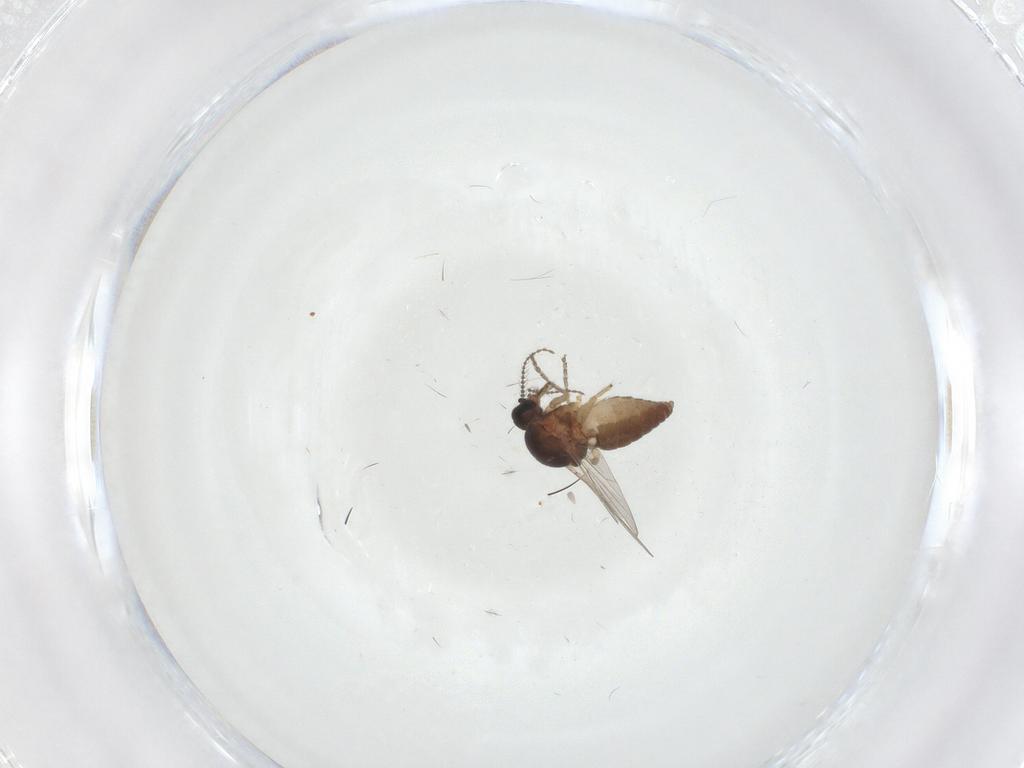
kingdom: Animalia
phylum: Arthropoda
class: Insecta
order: Diptera
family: Ceratopogonidae
